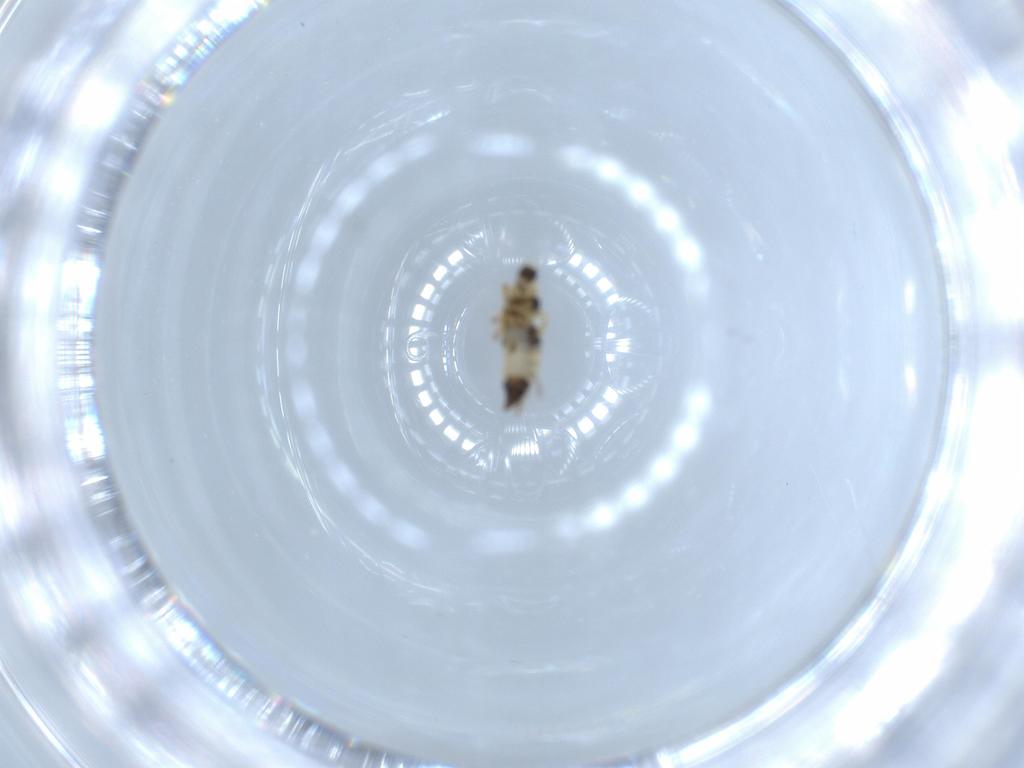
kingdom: Animalia
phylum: Arthropoda
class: Insecta
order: Thysanoptera
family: Thripidae
